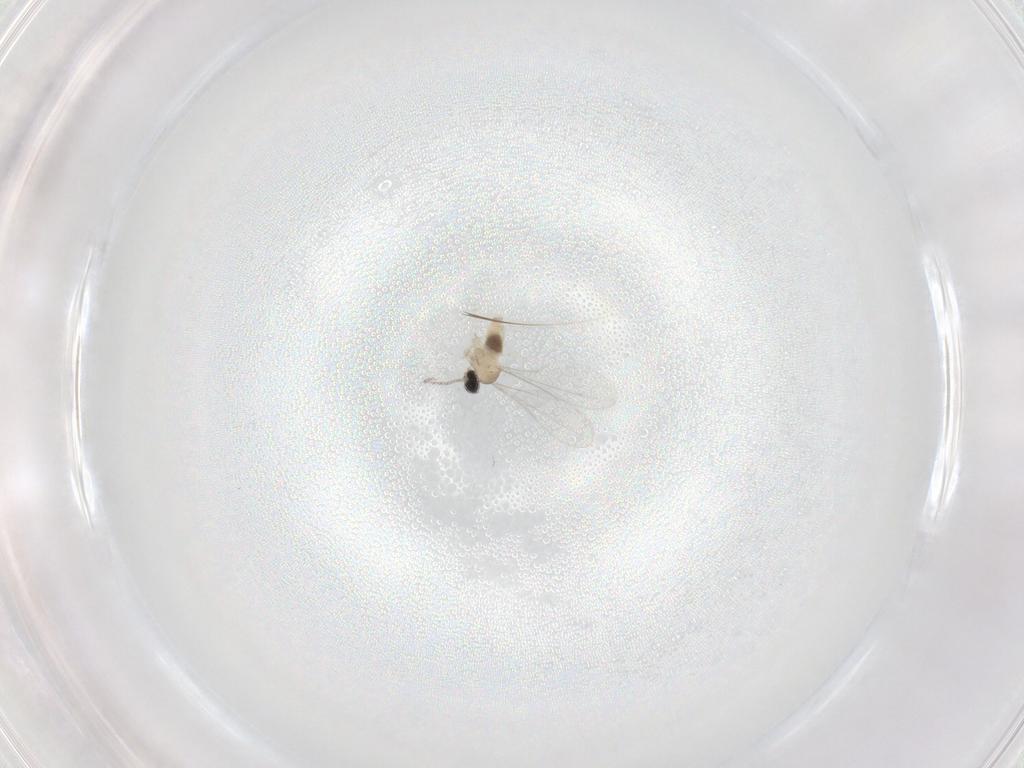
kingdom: Animalia
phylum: Arthropoda
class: Insecta
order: Diptera
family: Cecidomyiidae
